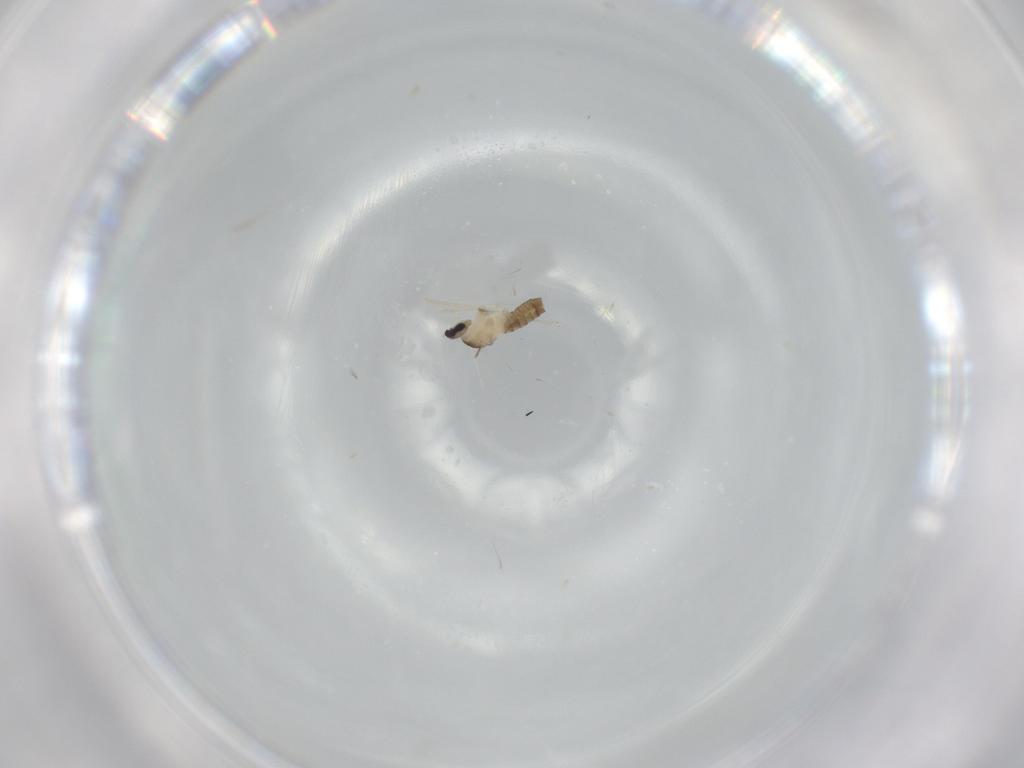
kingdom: Animalia
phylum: Arthropoda
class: Insecta
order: Diptera
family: Cecidomyiidae
